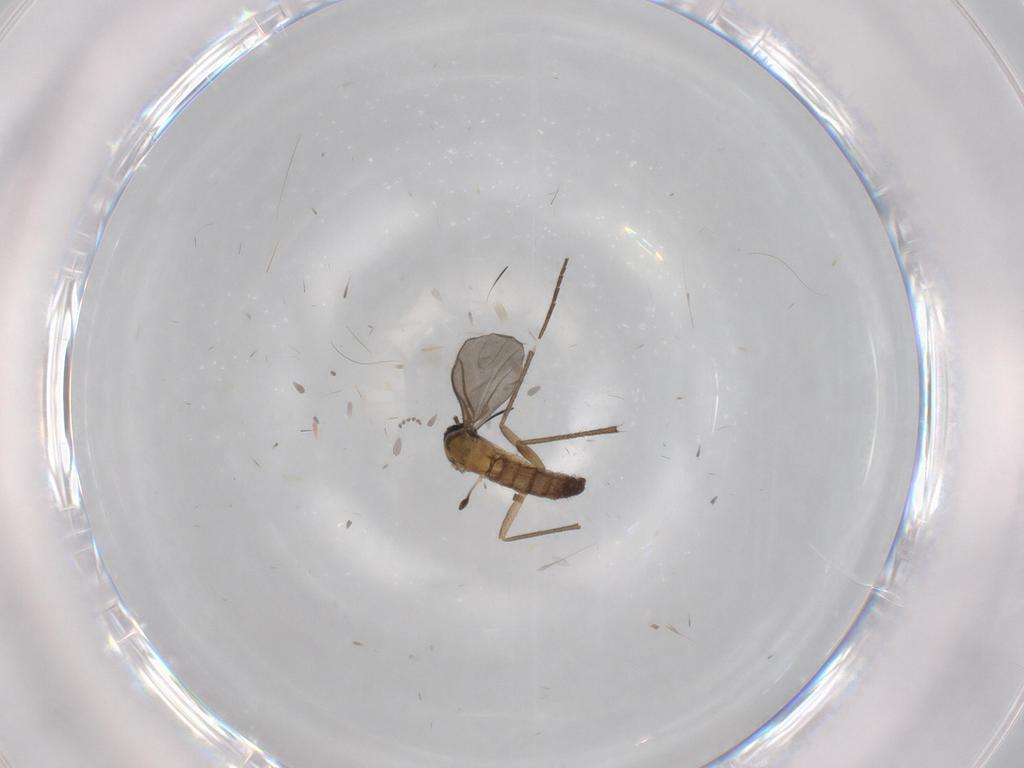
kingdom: Animalia
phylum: Arthropoda
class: Insecta
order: Diptera
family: Sciaridae
